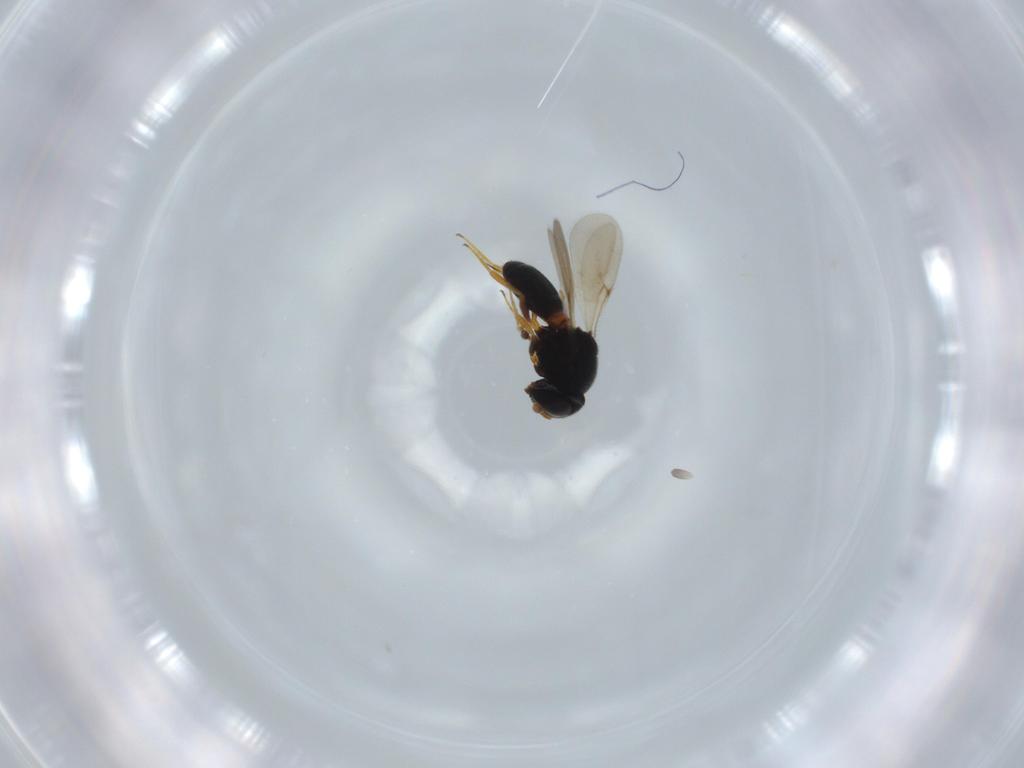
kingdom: Animalia
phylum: Arthropoda
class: Insecta
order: Hymenoptera
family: Scelionidae
